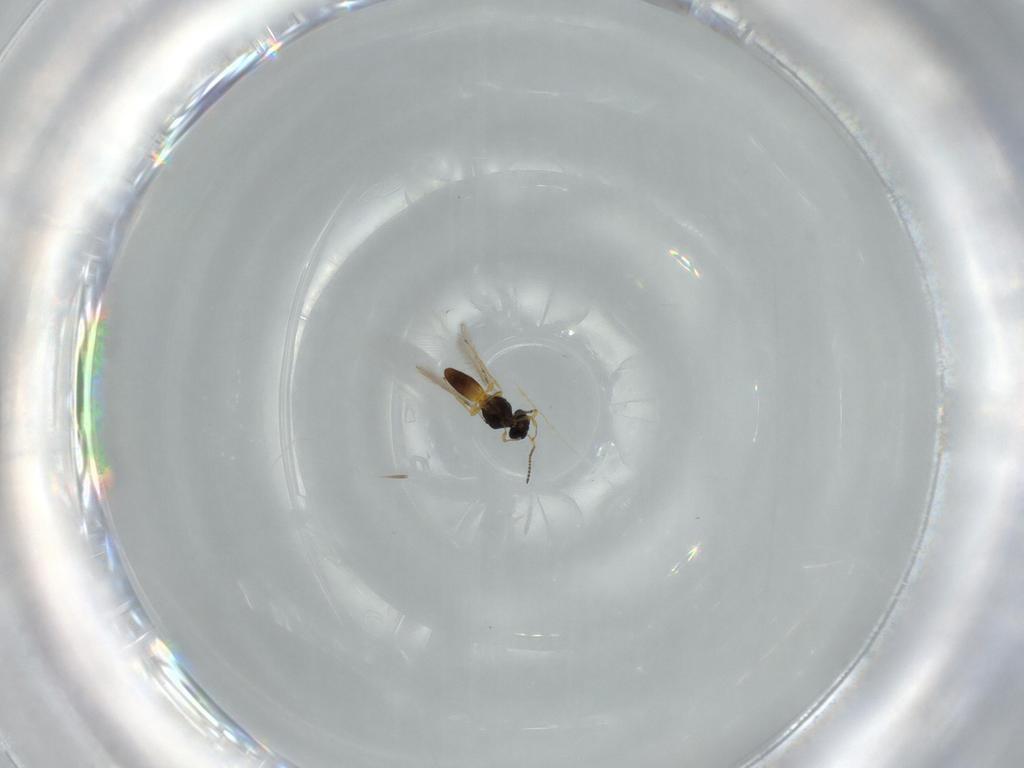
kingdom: Animalia
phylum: Arthropoda
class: Insecta
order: Hymenoptera
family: Scelionidae
